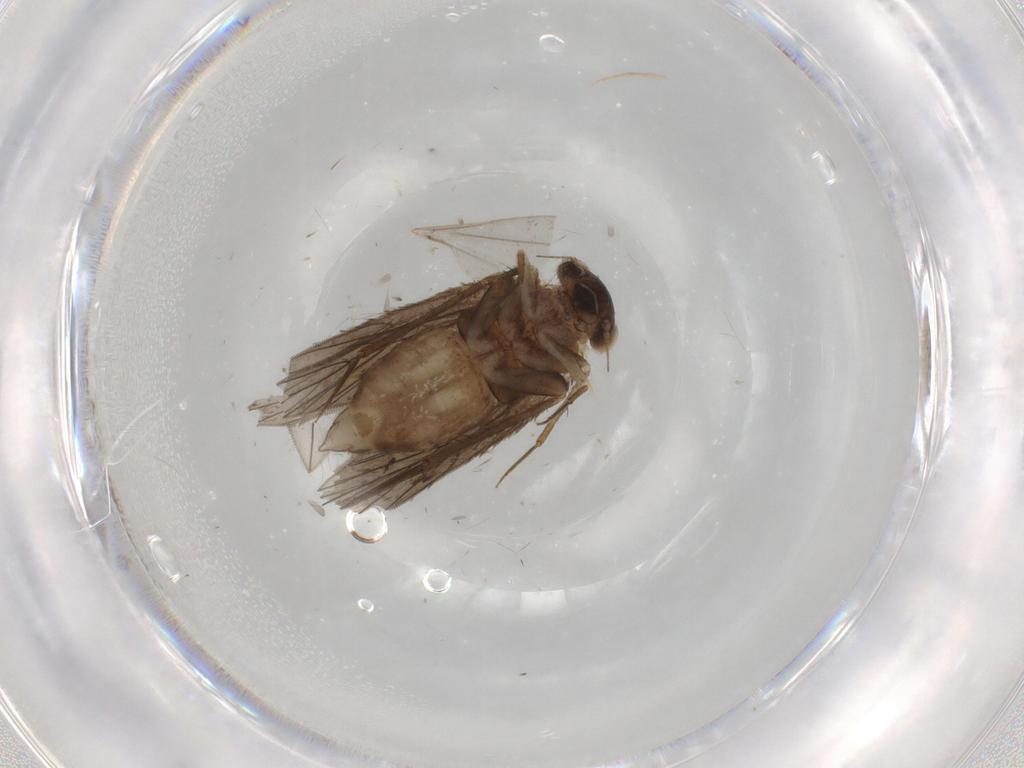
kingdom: Animalia
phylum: Arthropoda
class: Insecta
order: Psocodea
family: Lepidopsocidae
